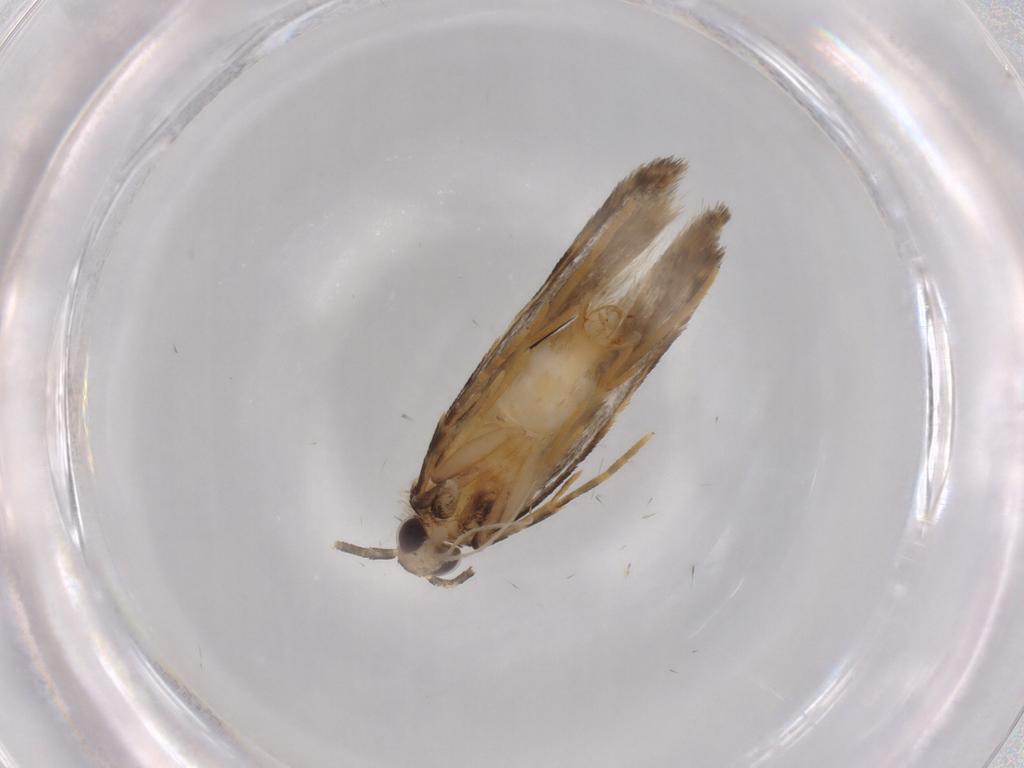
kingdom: Animalia
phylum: Arthropoda
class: Insecta
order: Lepidoptera
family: Autostichidae
